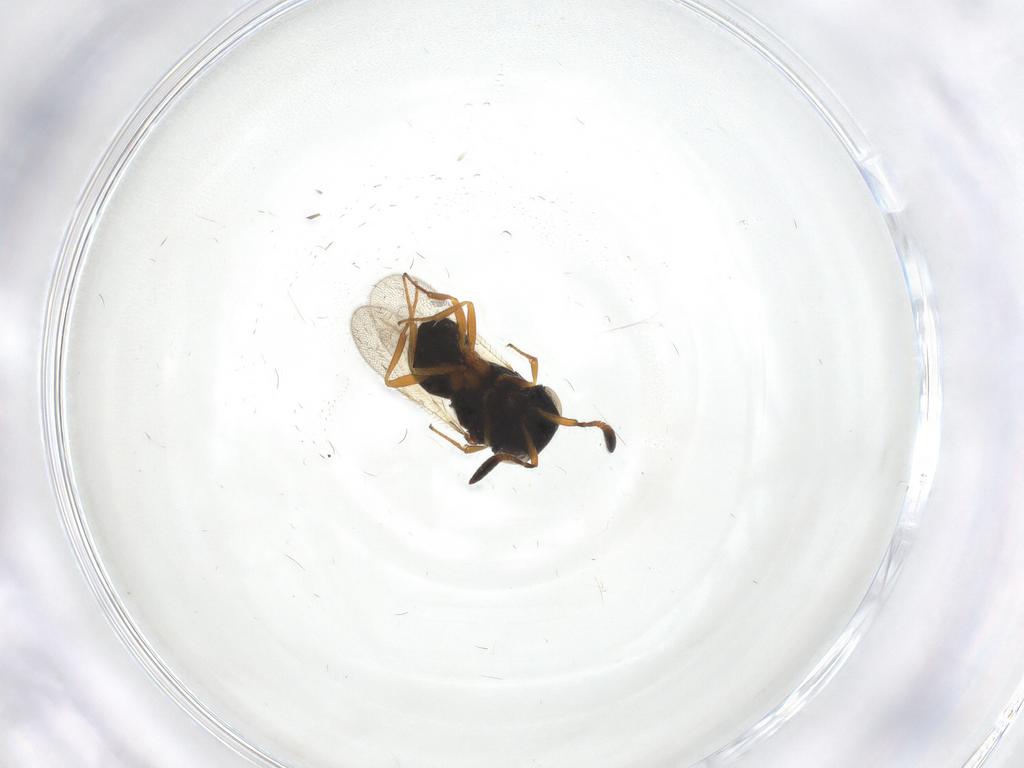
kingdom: Animalia
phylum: Arthropoda
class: Insecta
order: Hymenoptera
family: Scelionidae
